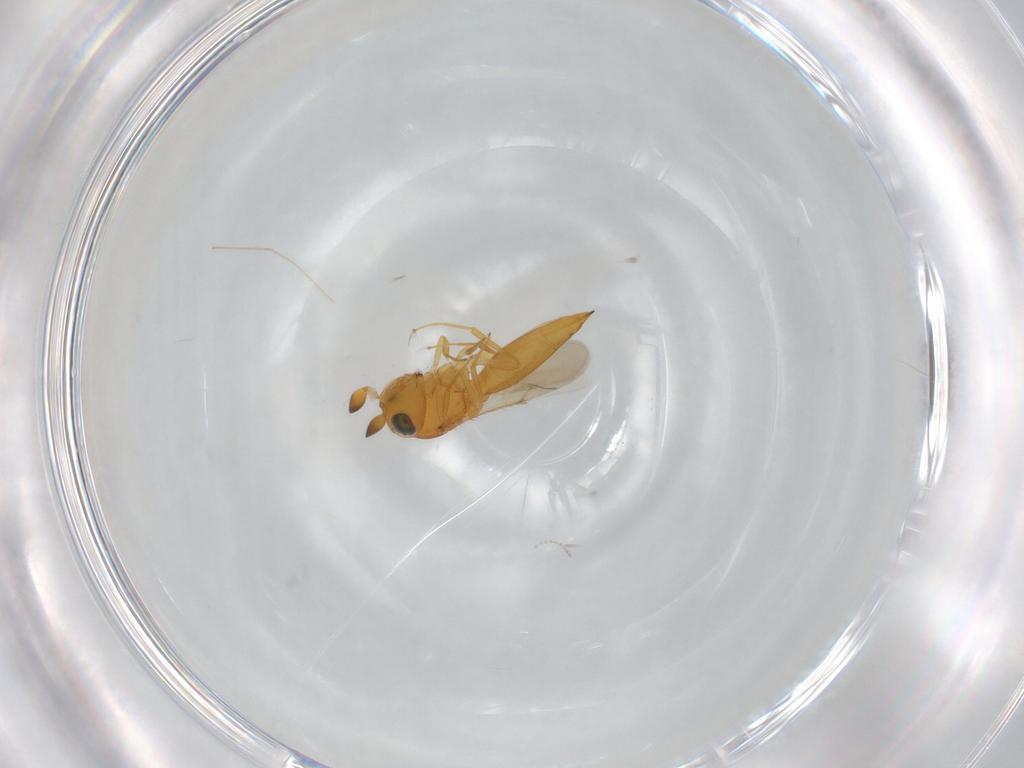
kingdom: Animalia
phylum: Arthropoda
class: Insecta
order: Hymenoptera
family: Scelionidae
